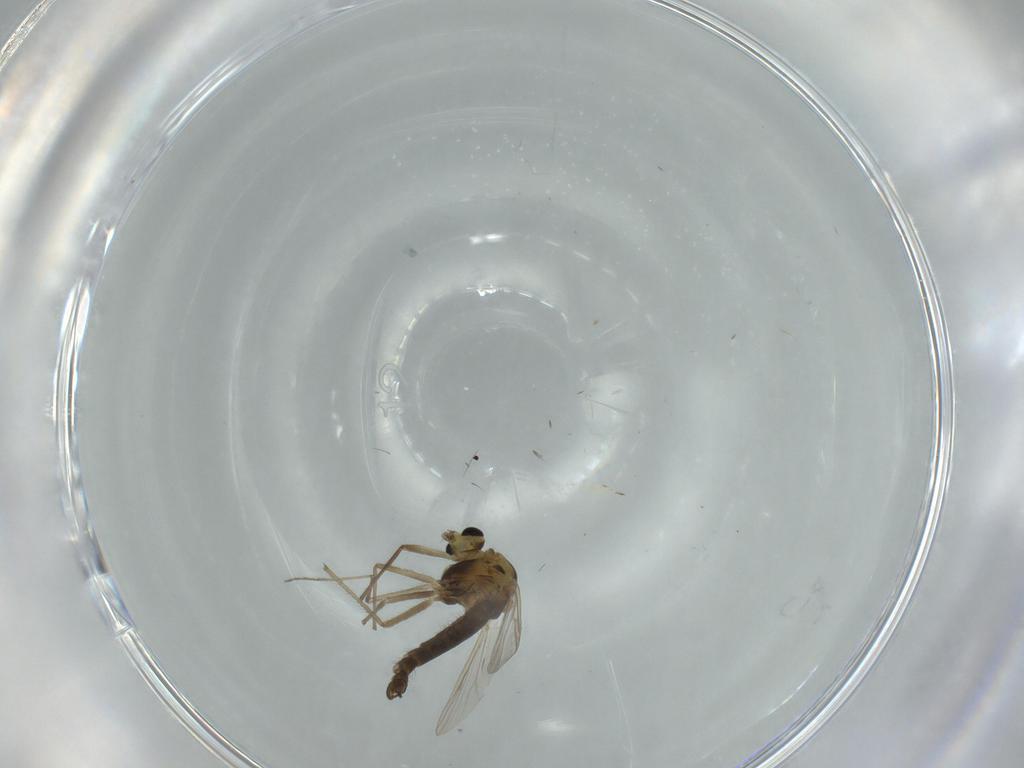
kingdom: Animalia
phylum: Arthropoda
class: Insecta
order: Diptera
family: Chironomidae
